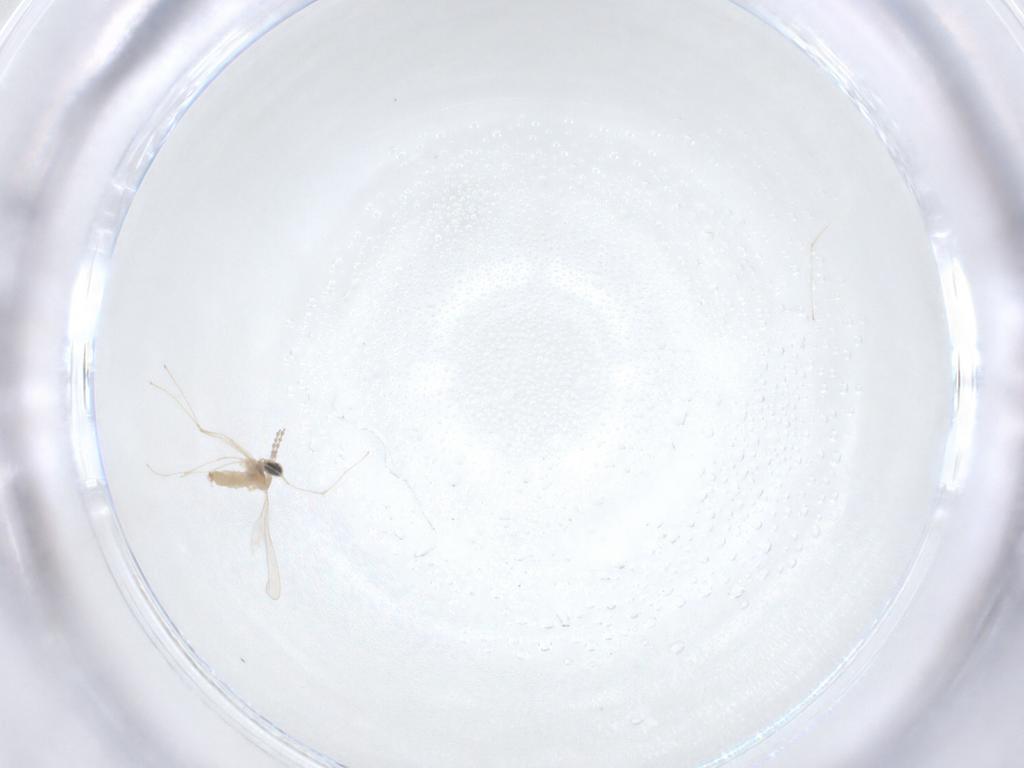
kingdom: Animalia
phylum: Arthropoda
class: Insecta
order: Diptera
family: Cecidomyiidae
